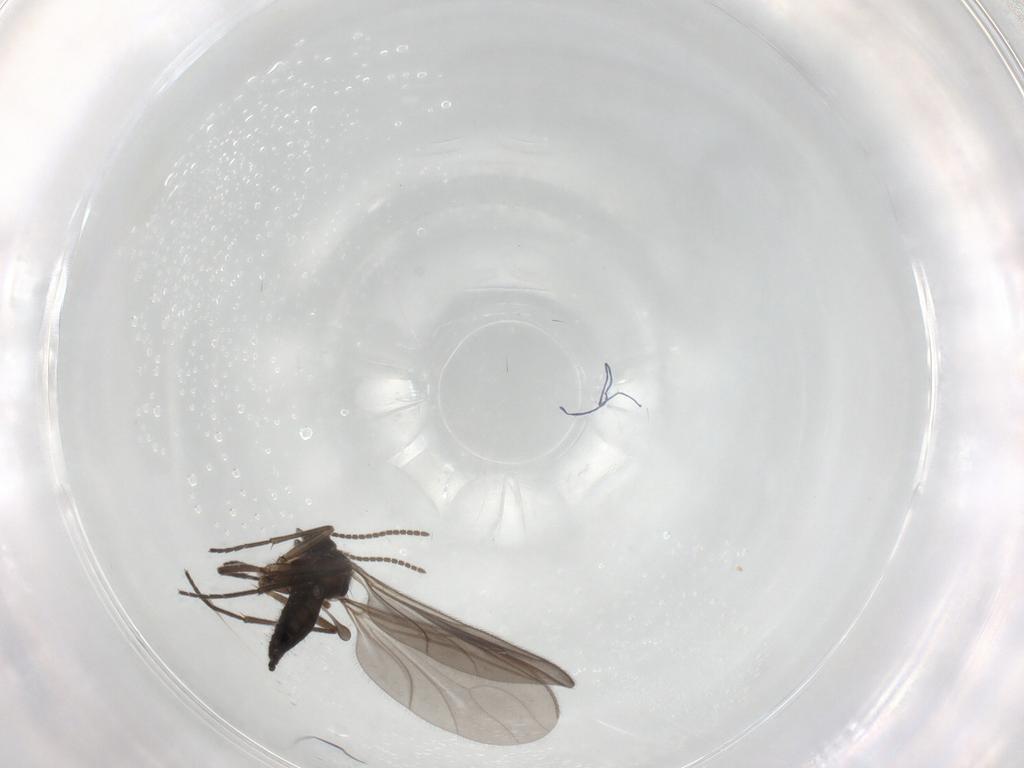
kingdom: Animalia
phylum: Arthropoda
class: Insecta
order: Diptera
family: Sciaridae
